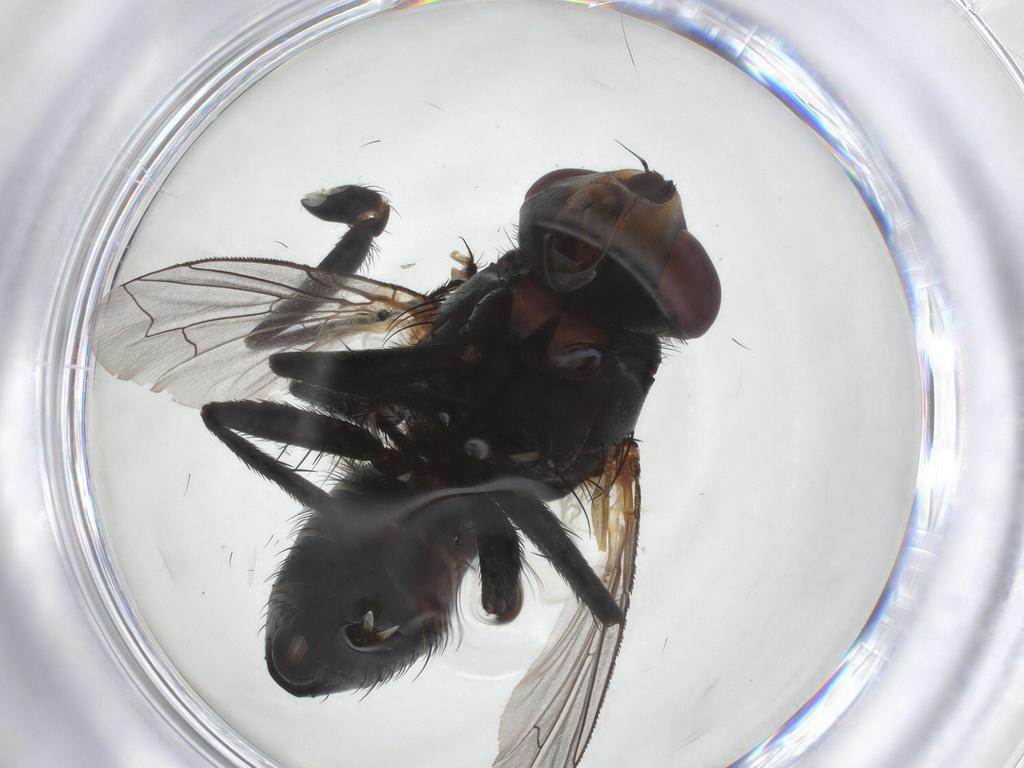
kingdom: Animalia
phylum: Arthropoda
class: Insecta
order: Diptera
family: Sarcophagidae
